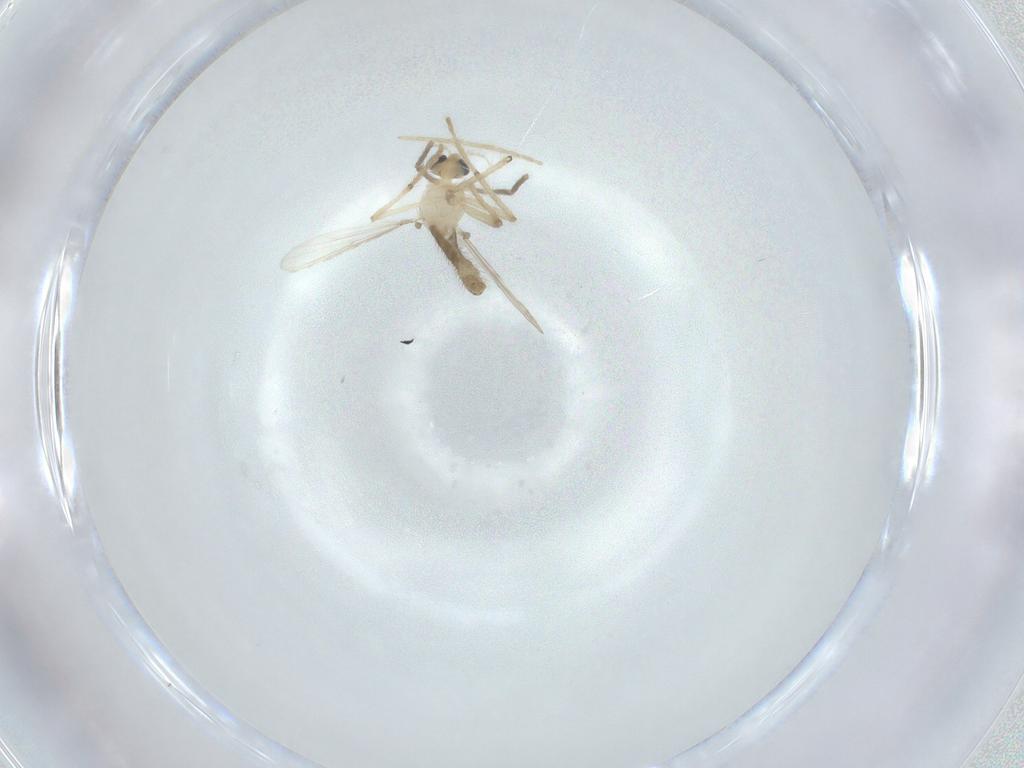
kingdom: Animalia
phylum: Arthropoda
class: Insecta
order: Diptera
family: Chironomidae
